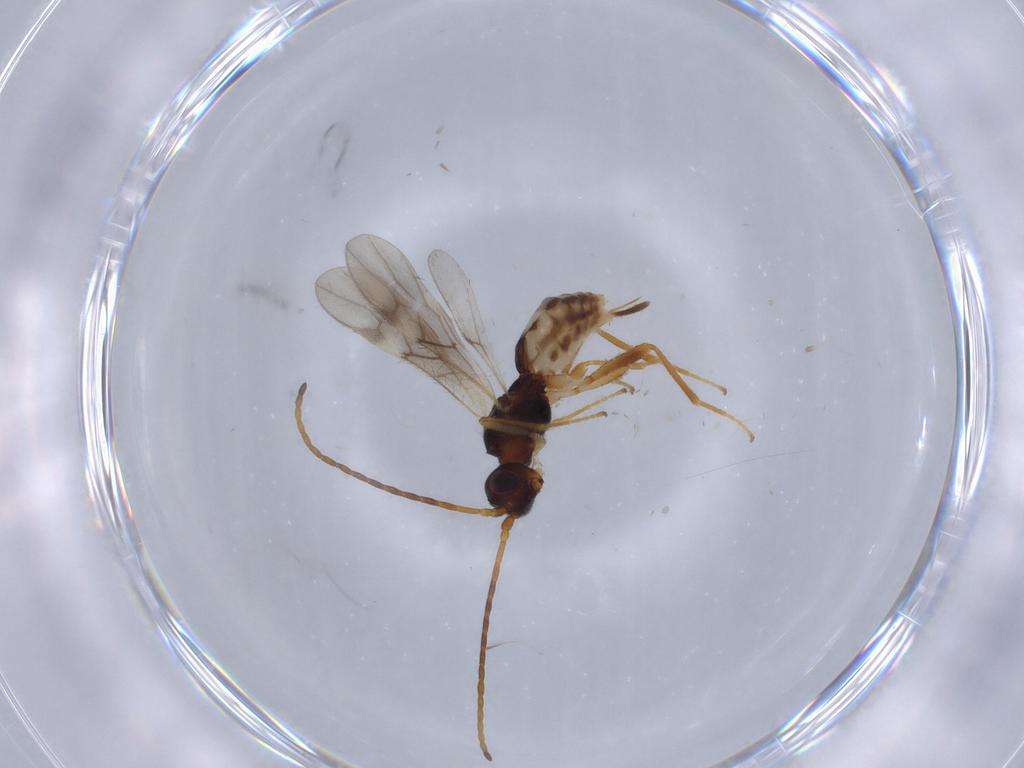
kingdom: Animalia
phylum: Arthropoda
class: Insecta
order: Hymenoptera
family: Braconidae
